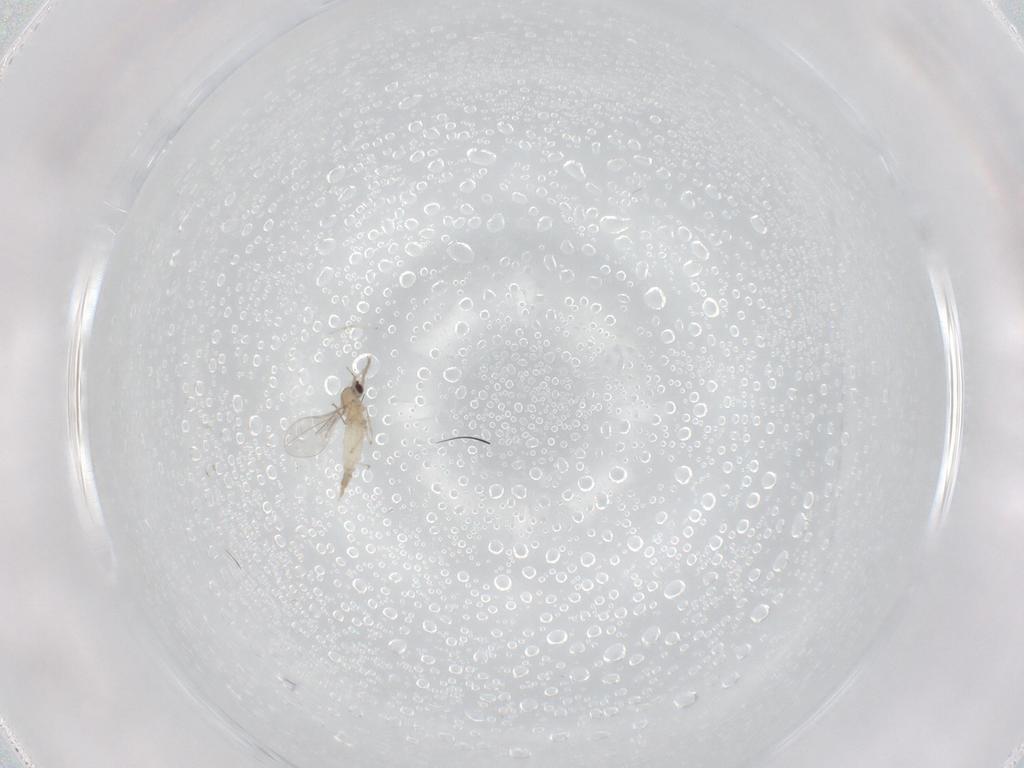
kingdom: Animalia
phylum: Arthropoda
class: Insecta
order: Diptera
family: Cecidomyiidae
